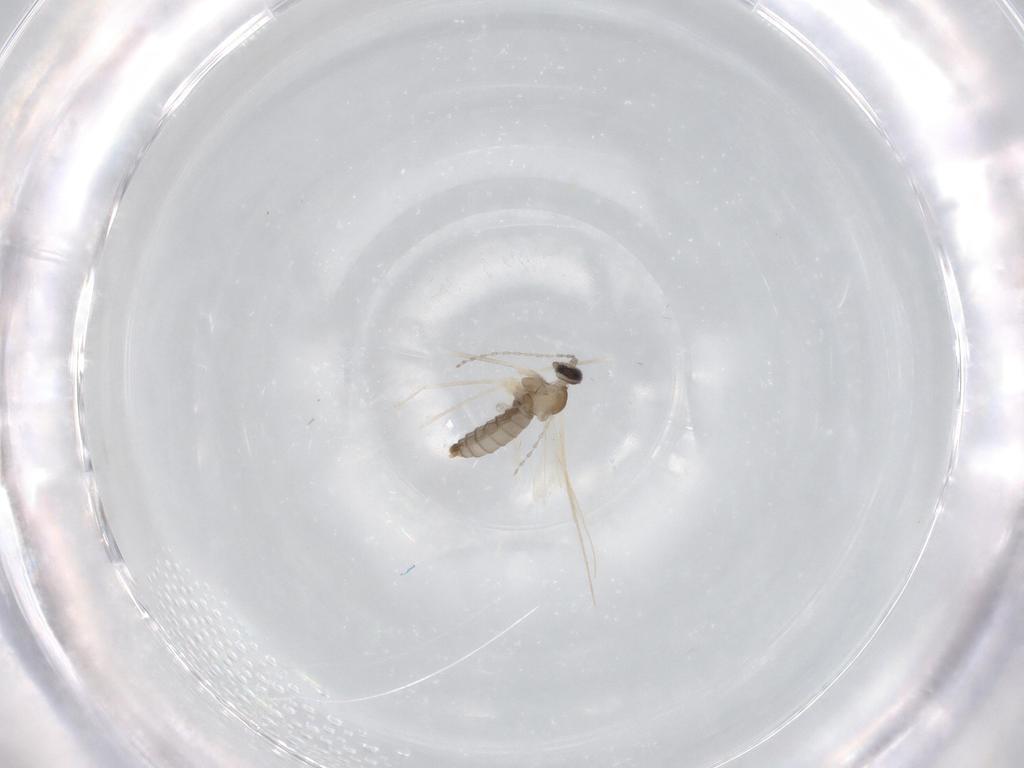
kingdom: Animalia
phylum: Arthropoda
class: Insecta
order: Diptera
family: Cecidomyiidae
